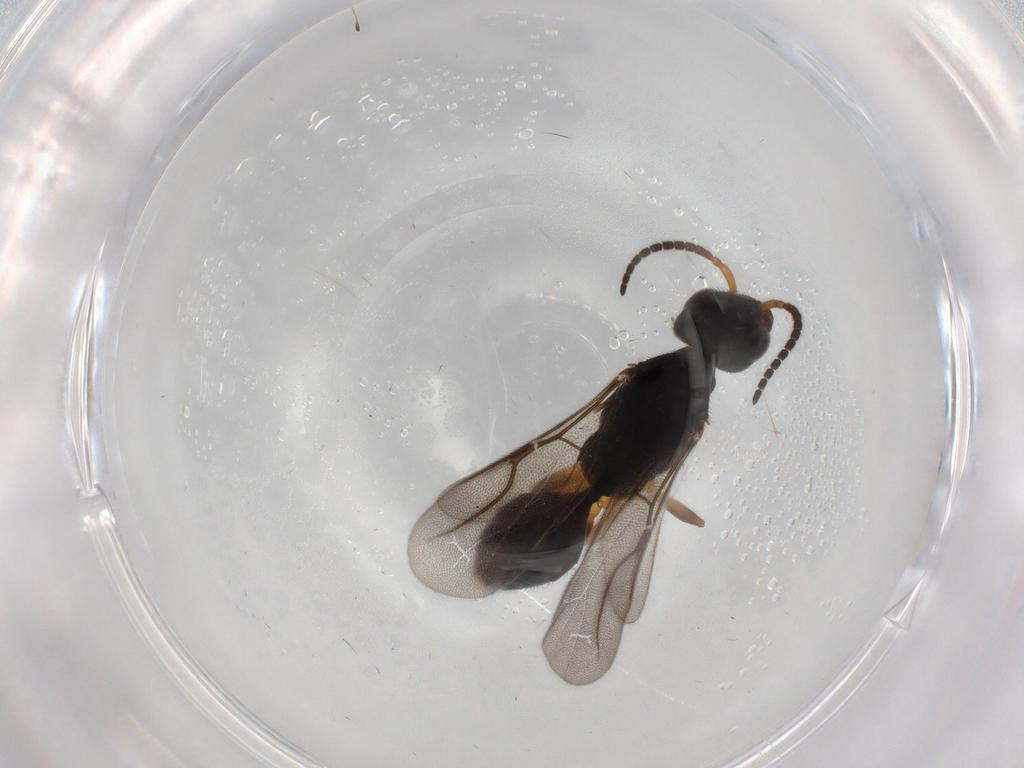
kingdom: Animalia
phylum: Arthropoda
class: Insecta
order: Hymenoptera
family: Bethylidae
